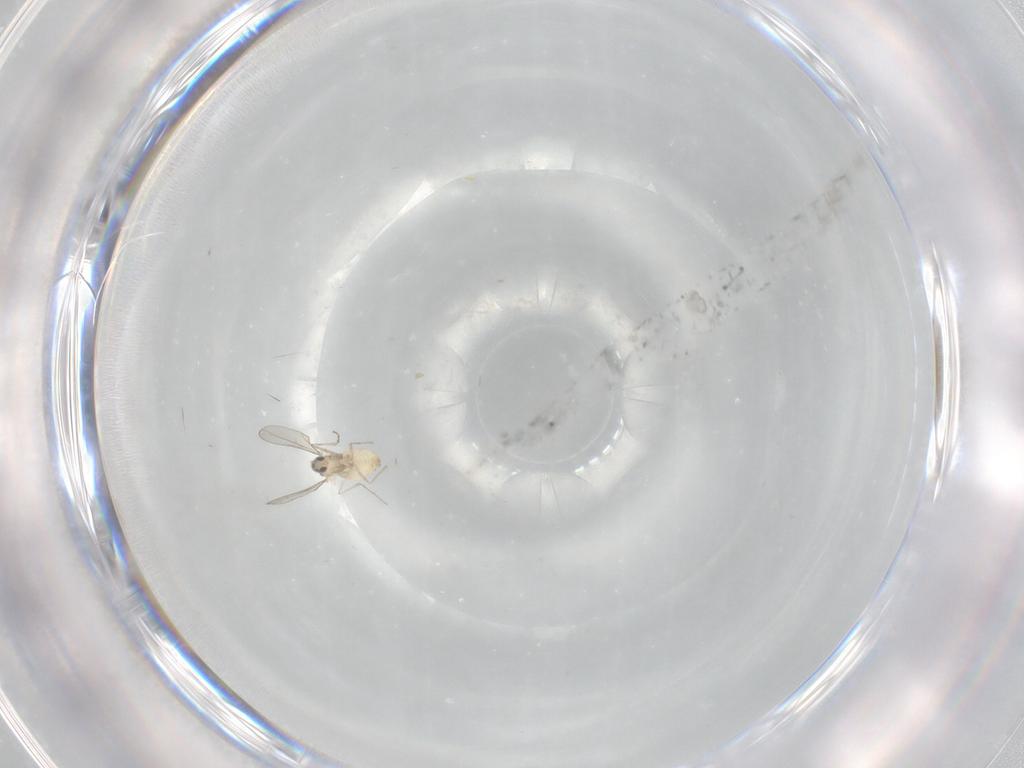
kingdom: Animalia
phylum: Arthropoda
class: Insecta
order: Diptera
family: Cecidomyiidae
